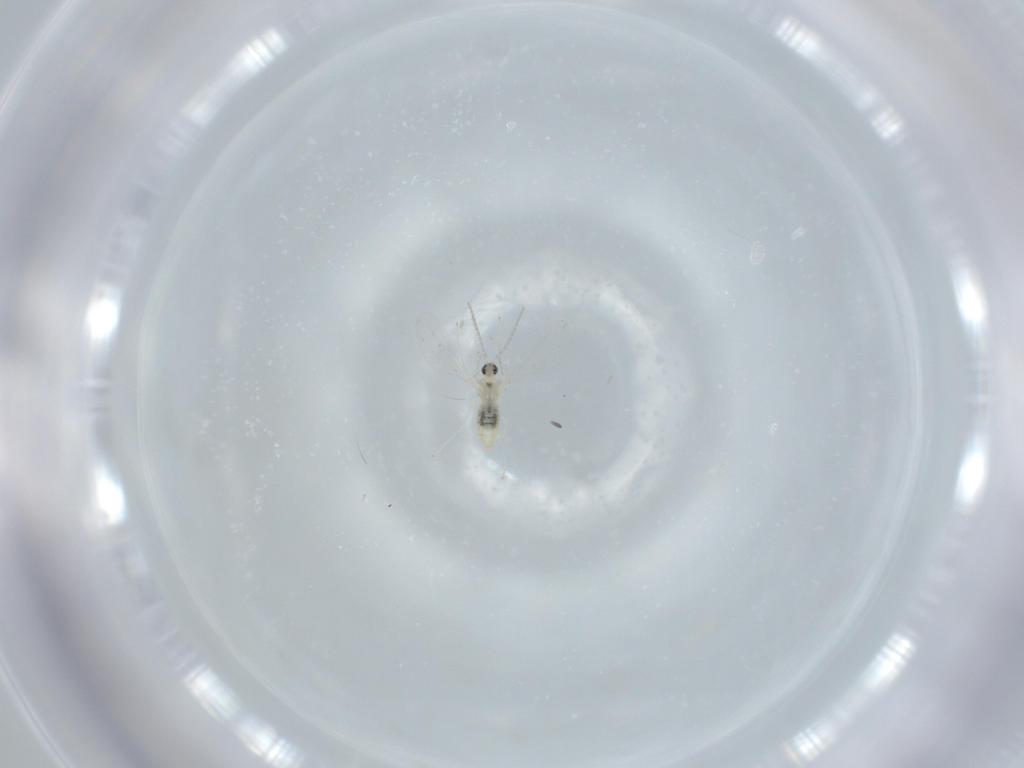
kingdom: Animalia
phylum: Arthropoda
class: Insecta
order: Diptera
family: Cecidomyiidae
